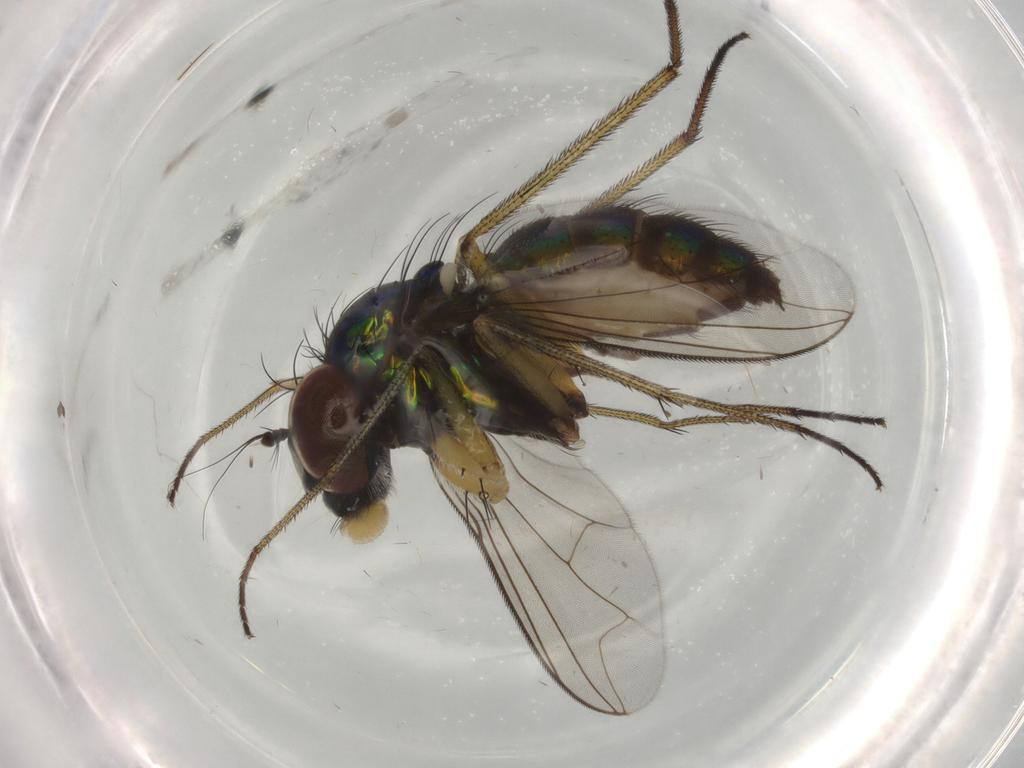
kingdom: Animalia
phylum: Arthropoda
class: Insecta
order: Diptera
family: Dolichopodidae
